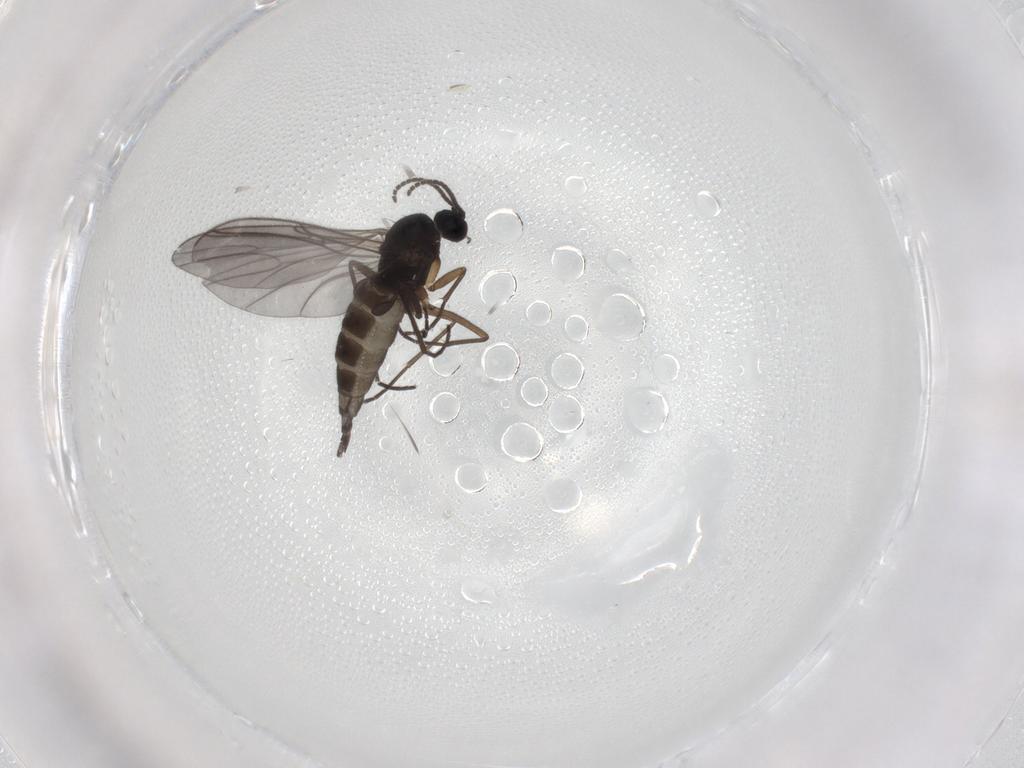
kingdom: Animalia
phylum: Arthropoda
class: Insecta
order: Diptera
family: Sciaridae
